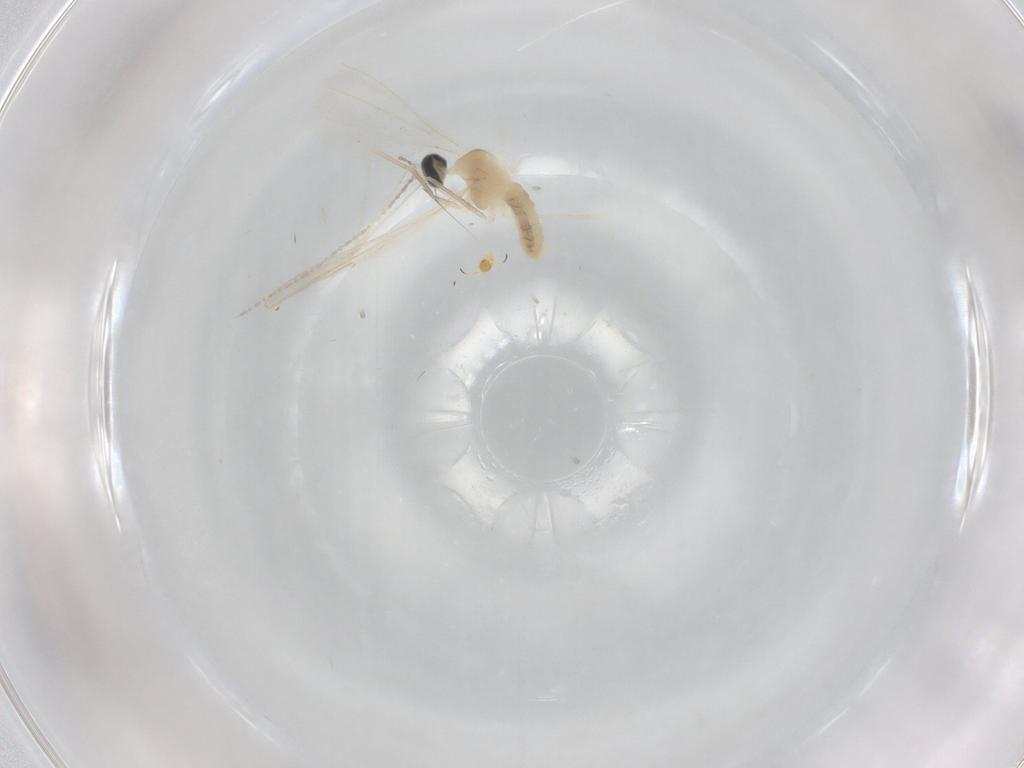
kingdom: Animalia
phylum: Arthropoda
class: Insecta
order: Diptera
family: Cecidomyiidae
